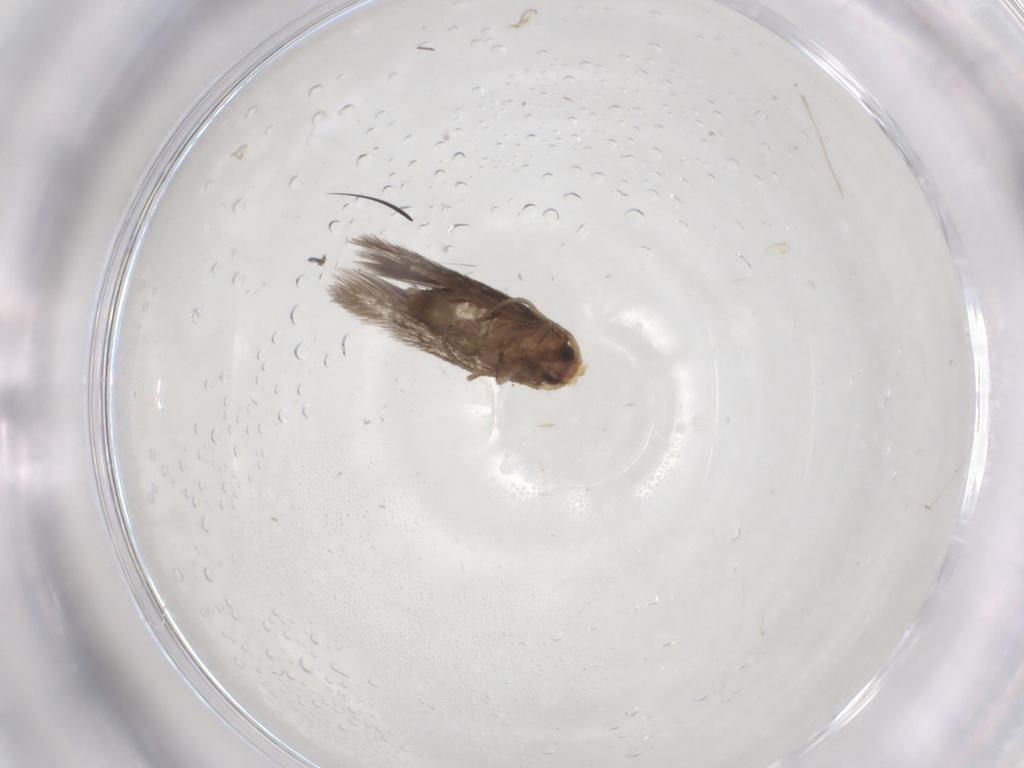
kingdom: Animalia
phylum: Arthropoda
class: Insecta
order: Lepidoptera
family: Nepticulidae
